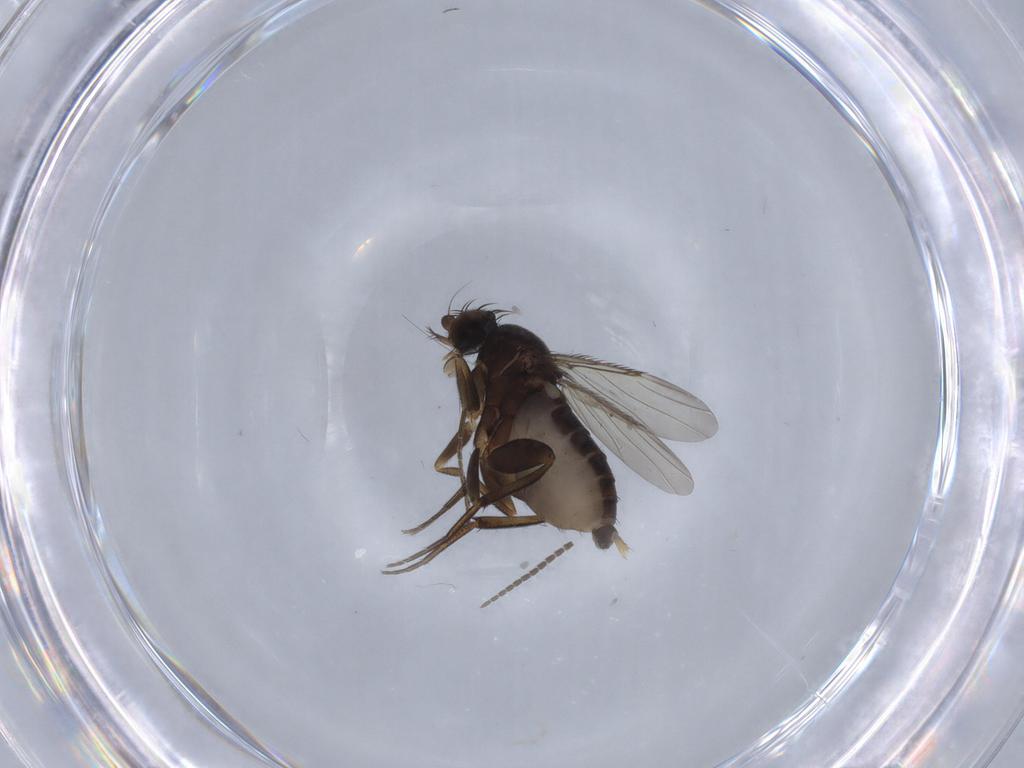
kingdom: Animalia
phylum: Arthropoda
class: Insecta
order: Diptera
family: Sciaridae
